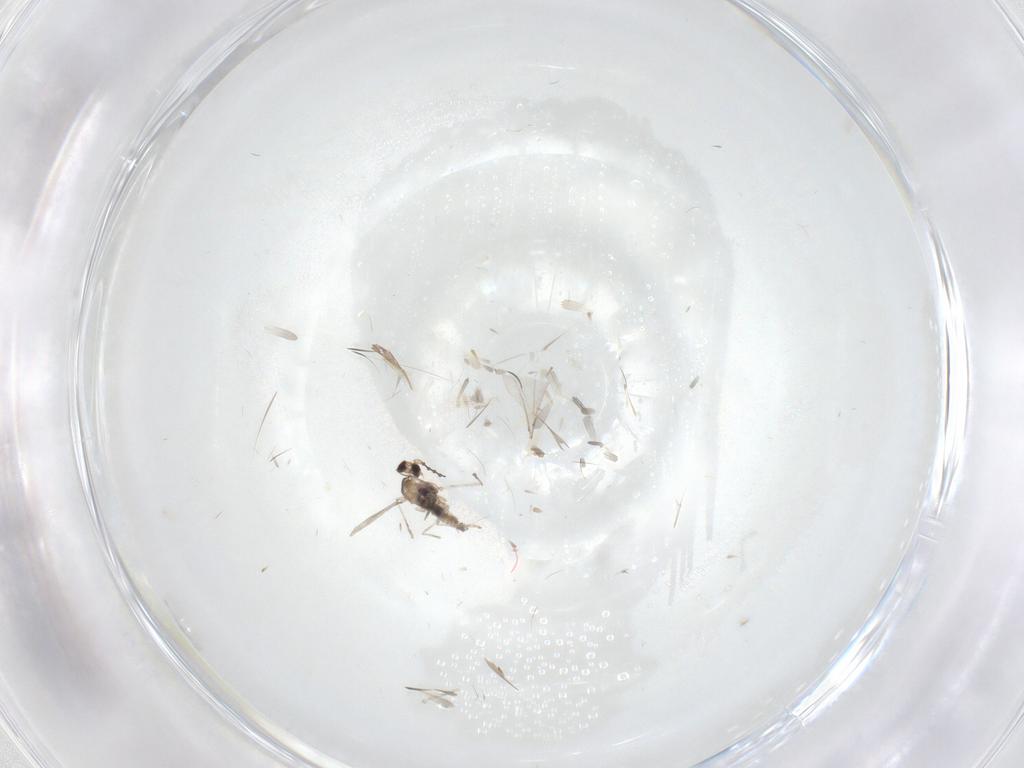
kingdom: Animalia
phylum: Arthropoda
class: Insecta
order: Diptera
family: Cecidomyiidae
